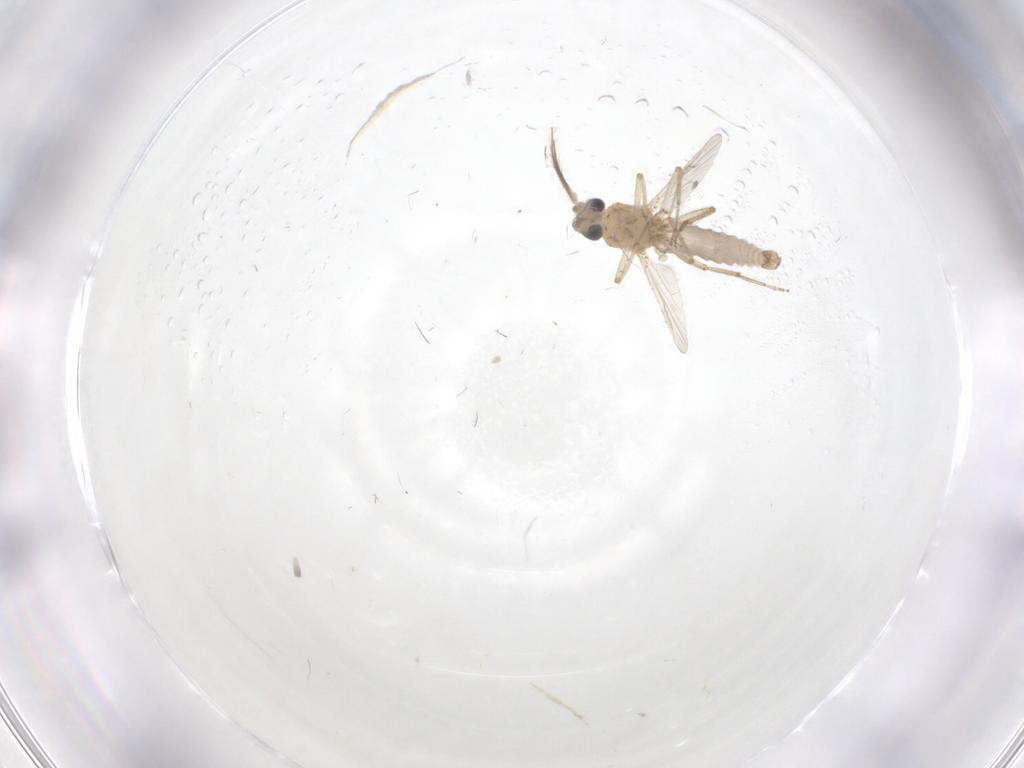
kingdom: Animalia
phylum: Arthropoda
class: Insecta
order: Diptera
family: Ceratopogonidae
